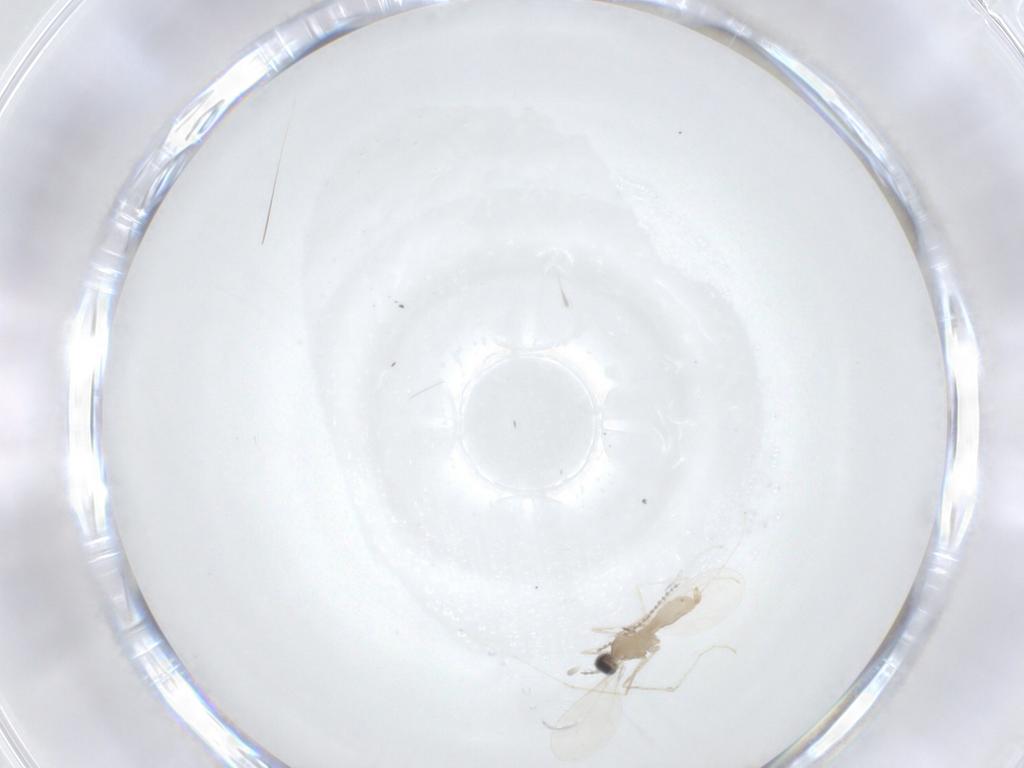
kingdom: Animalia
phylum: Arthropoda
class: Insecta
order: Diptera
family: Cecidomyiidae
